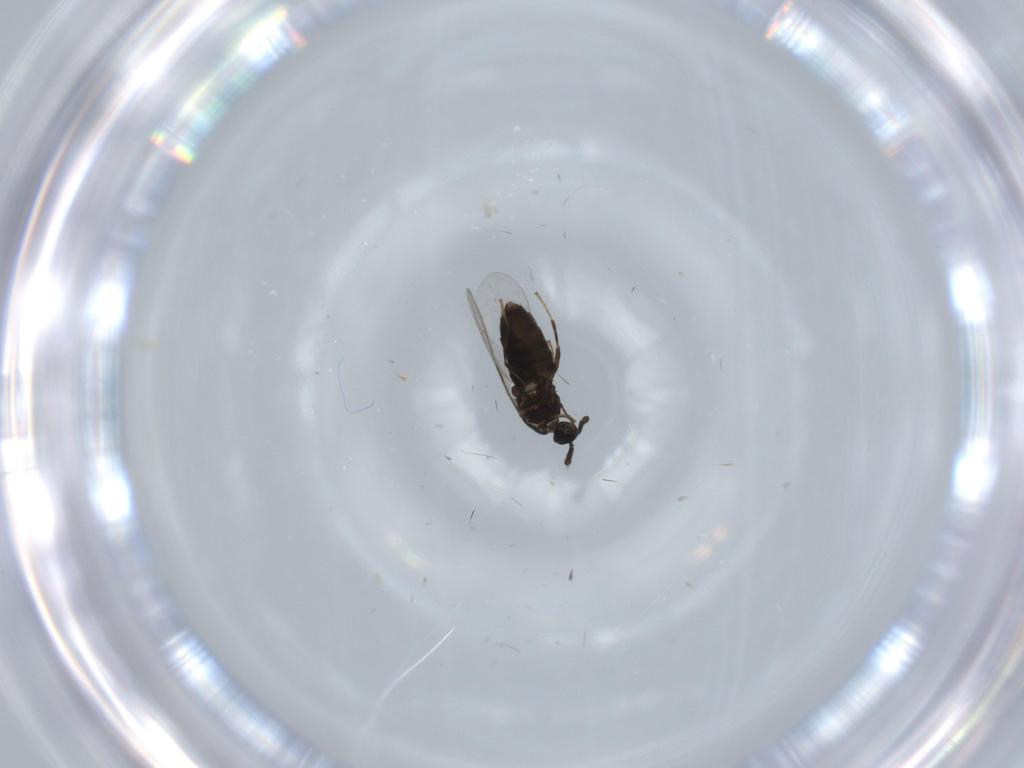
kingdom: Animalia
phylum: Arthropoda
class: Insecta
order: Diptera
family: Scatopsidae
